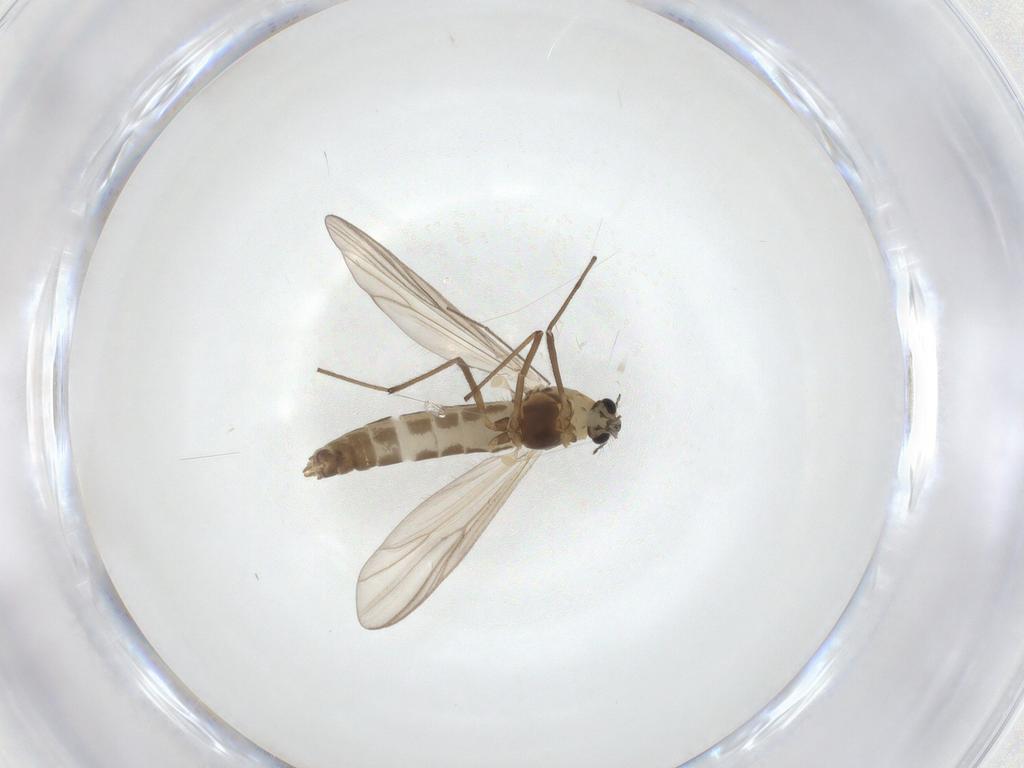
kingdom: Animalia
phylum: Arthropoda
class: Insecta
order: Diptera
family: Chironomidae
